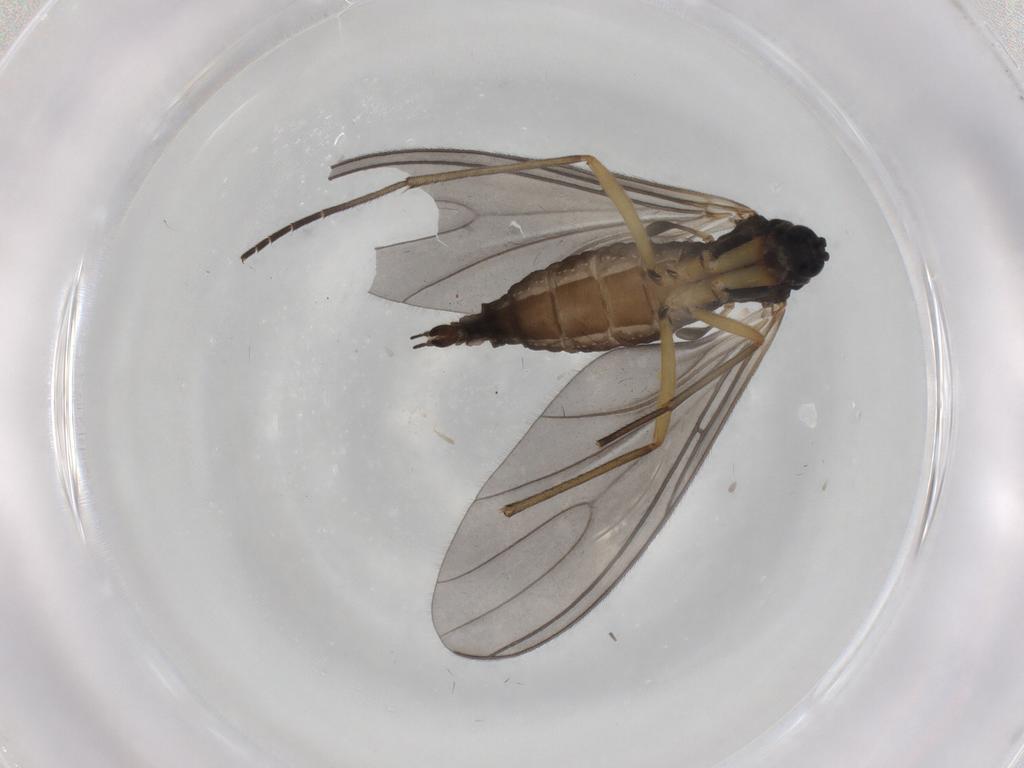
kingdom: Animalia
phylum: Arthropoda
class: Insecta
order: Diptera
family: Sciaridae
